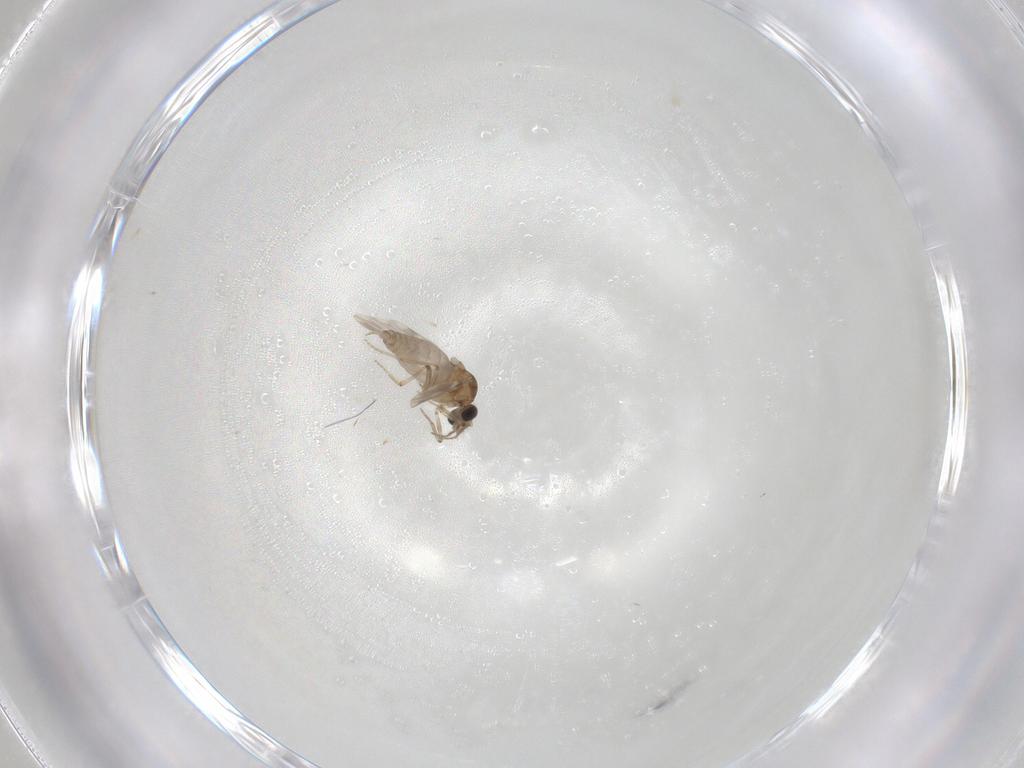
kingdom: Animalia
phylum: Arthropoda
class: Insecta
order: Diptera
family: Ceratopogonidae
